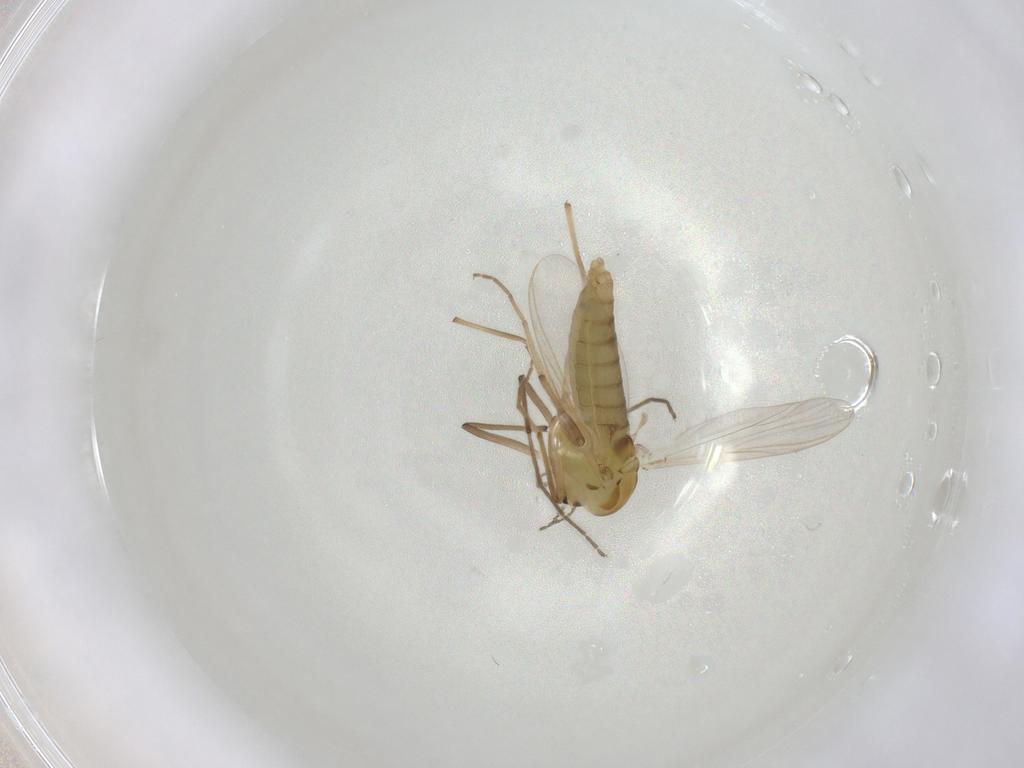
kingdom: Animalia
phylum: Arthropoda
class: Insecta
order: Diptera
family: Chironomidae
